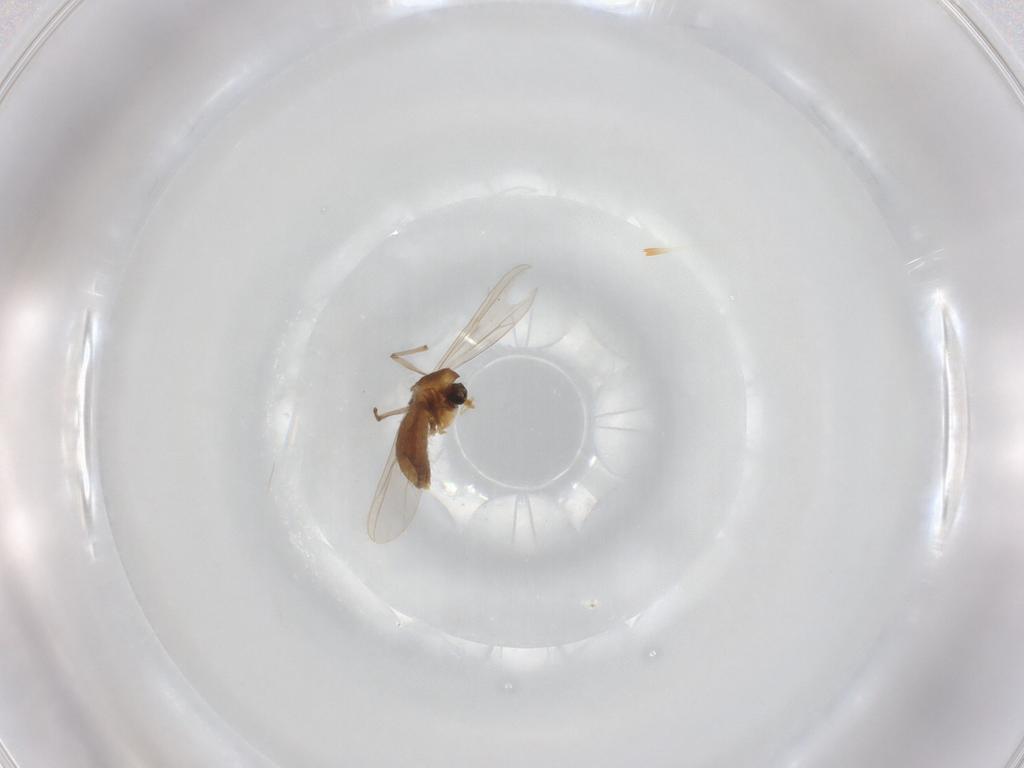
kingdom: Animalia
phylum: Arthropoda
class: Insecta
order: Diptera
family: Chironomidae
